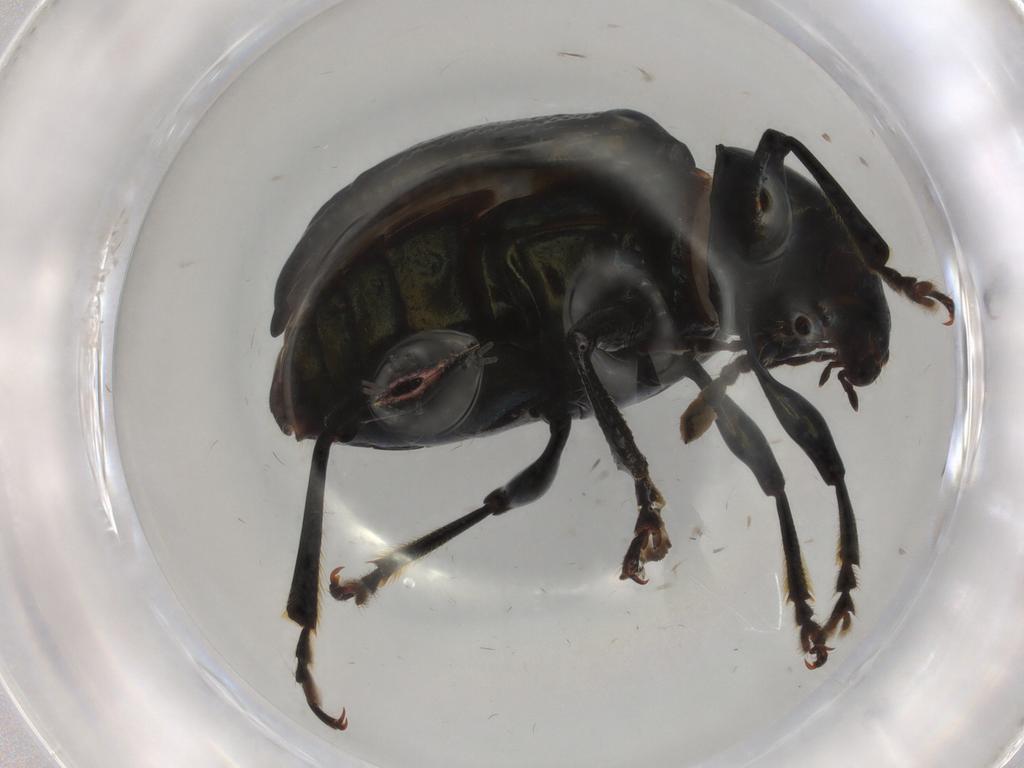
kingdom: Animalia
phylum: Arthropoda
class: Insecta
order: Coleoptera
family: Chrysomelidae
